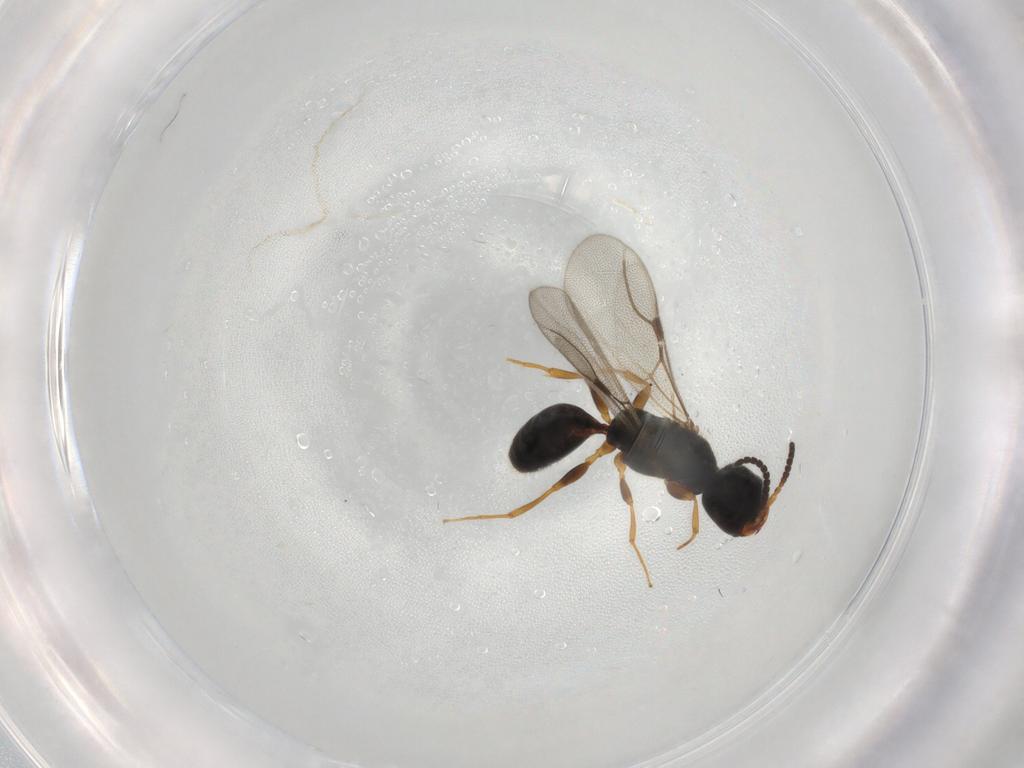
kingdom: Animalia
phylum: Arthropoda
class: Insecta
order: Hymenoptera
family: Bethylidae
